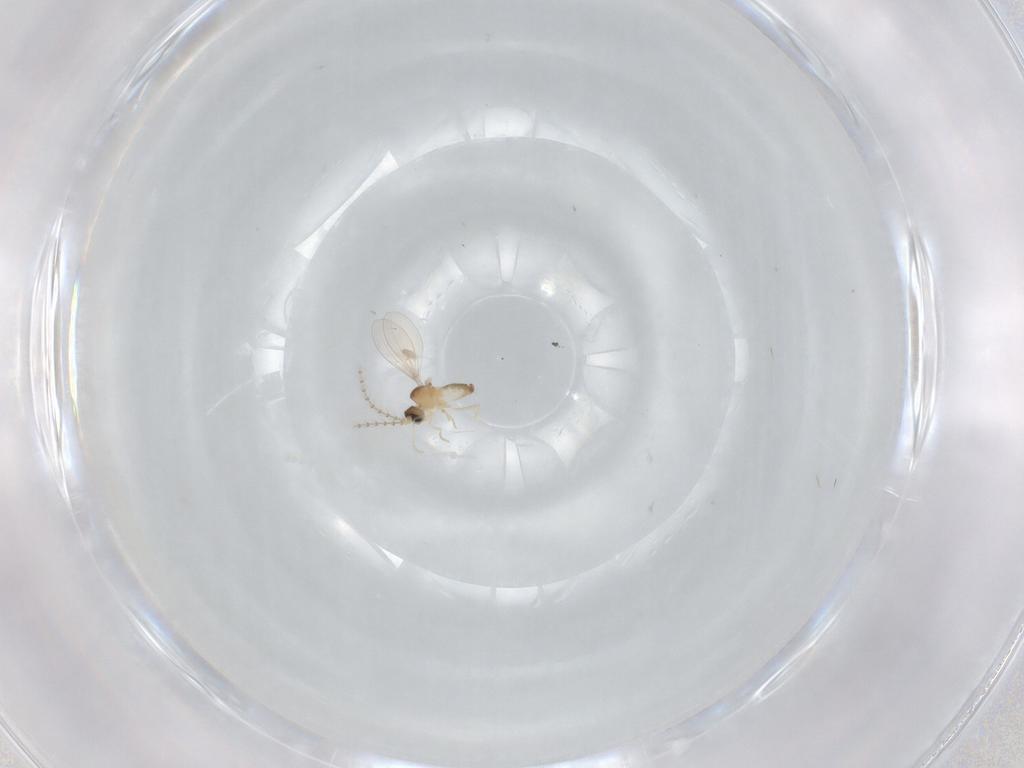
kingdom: Animalia
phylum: Arthropoda
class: Insecta
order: Diptera
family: Cecidomyiidae
